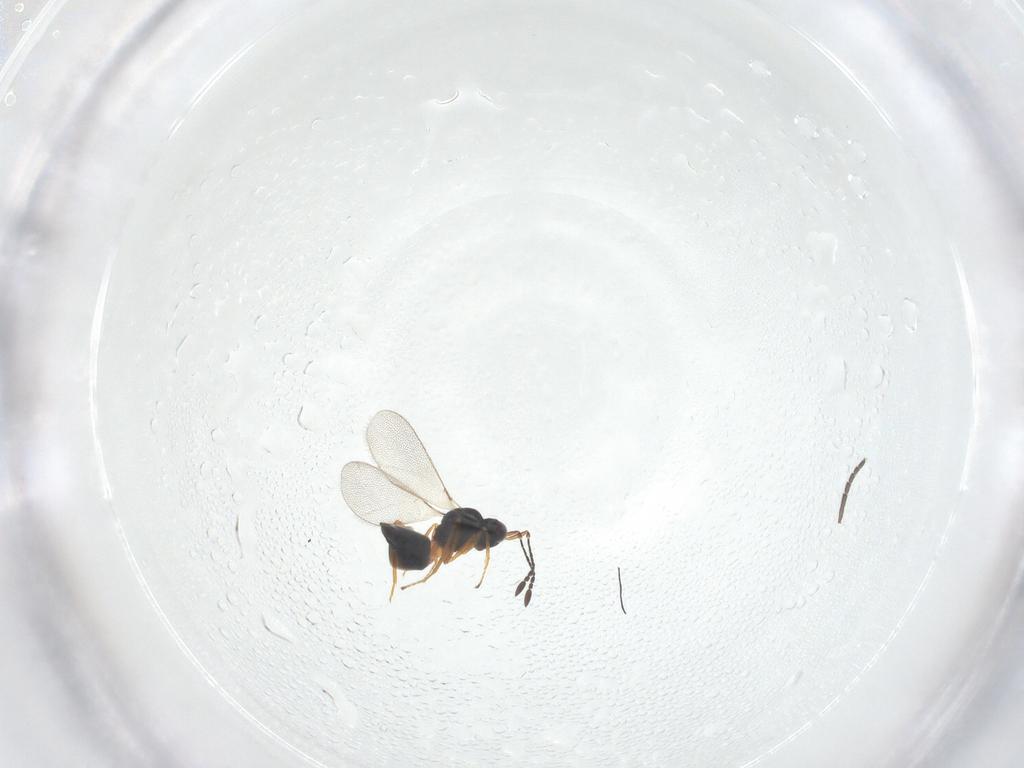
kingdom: Animalia
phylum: Arthropoda
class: Insecta
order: Hymenoptera
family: Mymaridae
